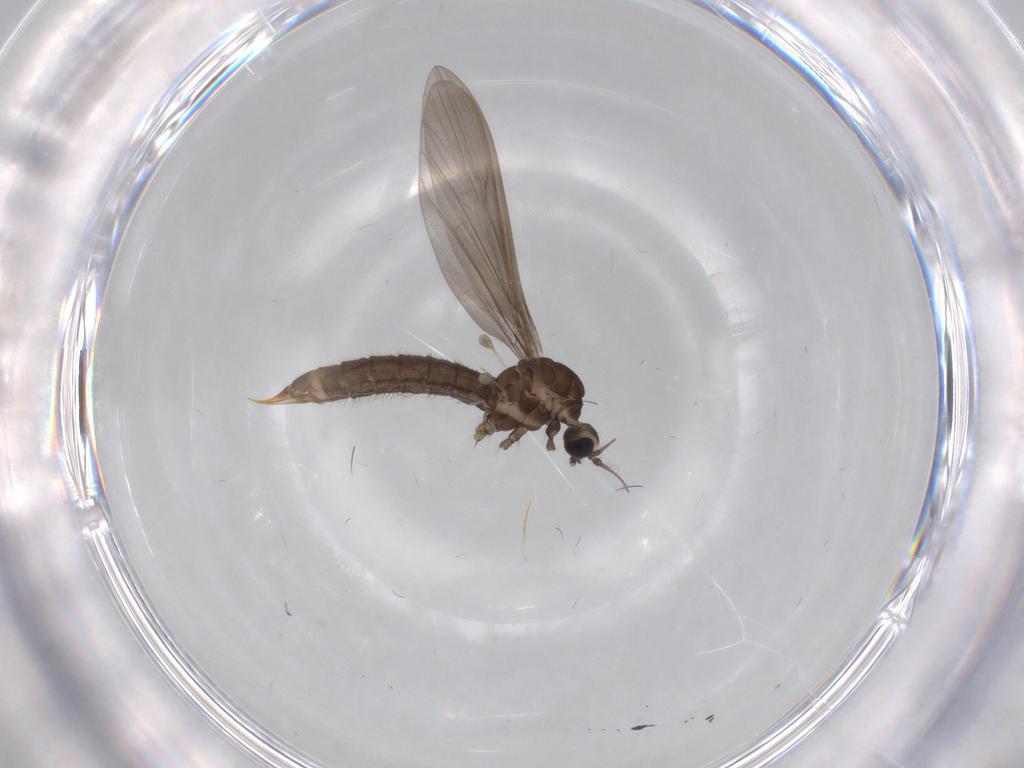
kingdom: Animalia
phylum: Arthropoda
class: Insecta
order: Diptera
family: Limoniidae
